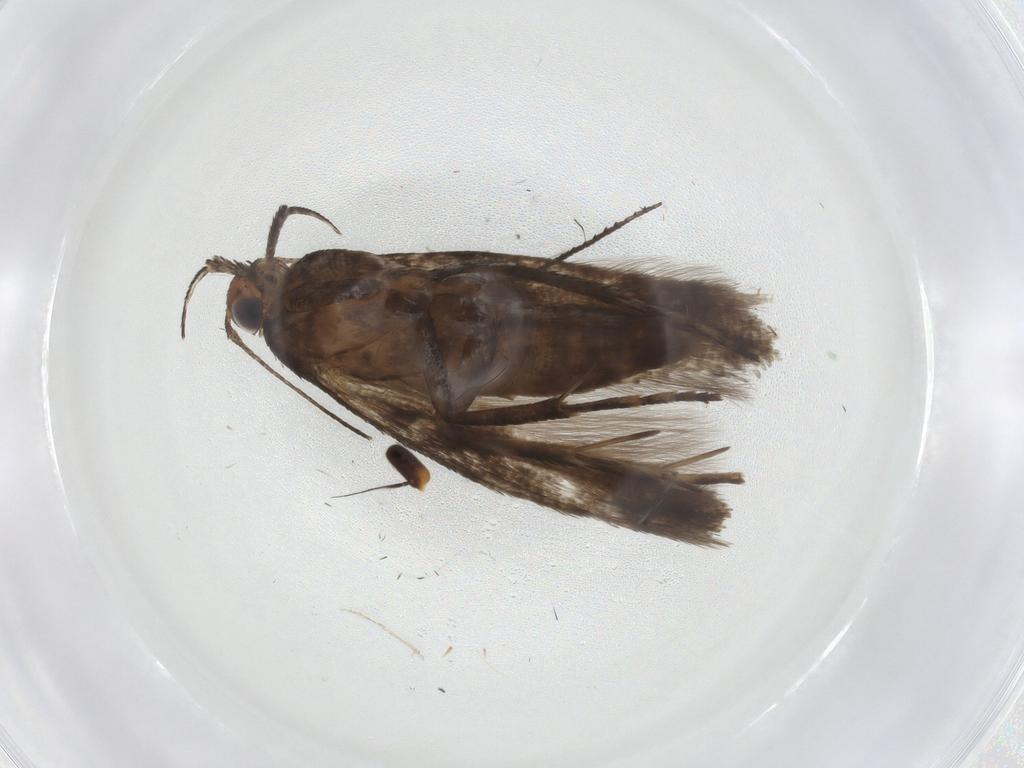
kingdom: Animalia
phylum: Arthropoda
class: Insecta
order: Lepidoptera
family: Gelechiidae
